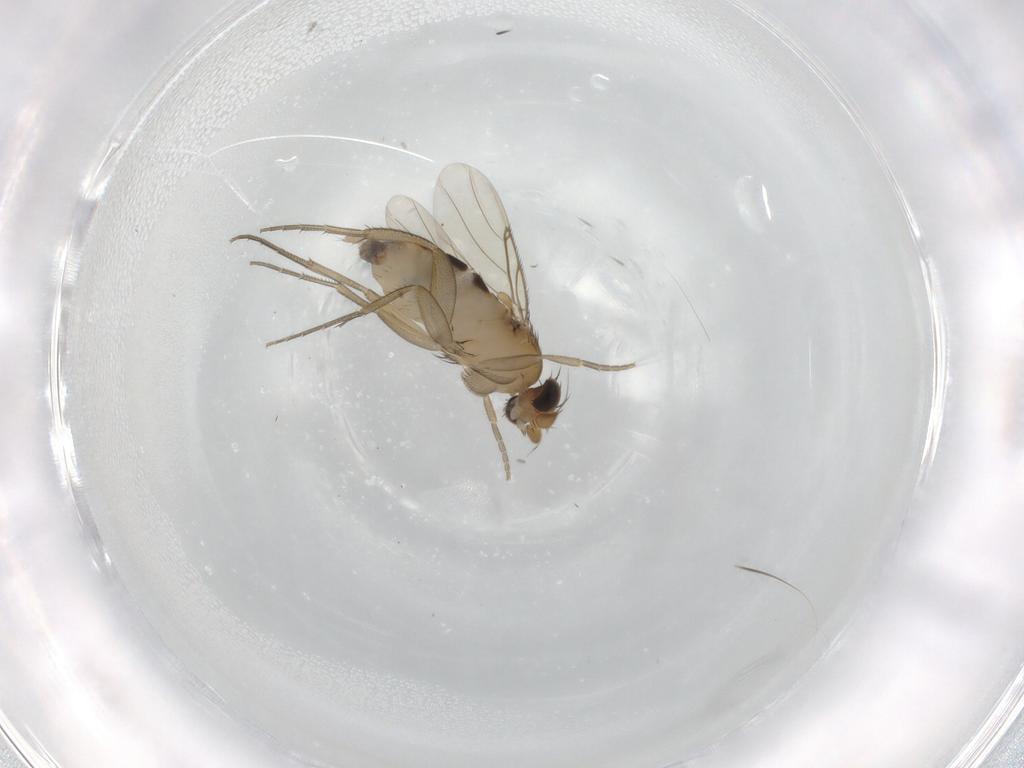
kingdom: Animalia
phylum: Arthropoda
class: Insecta
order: Diptera
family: Phoridae
